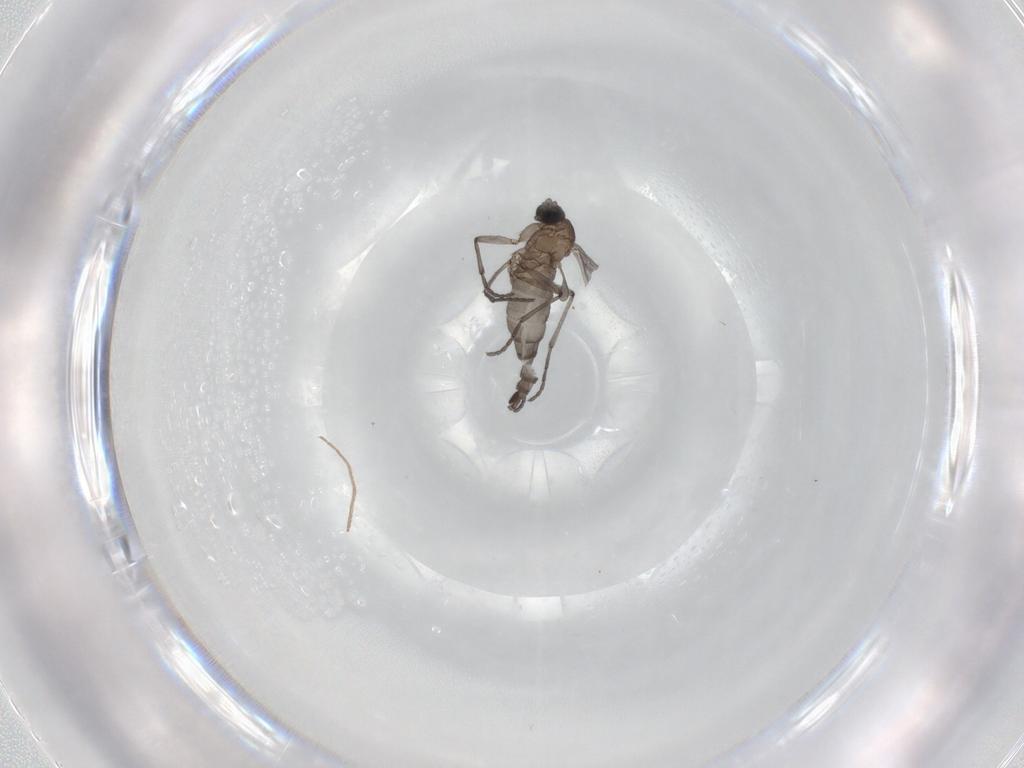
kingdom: Animalia
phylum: Arthropoda
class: Insecta
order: Diptera
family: Sciaridae
